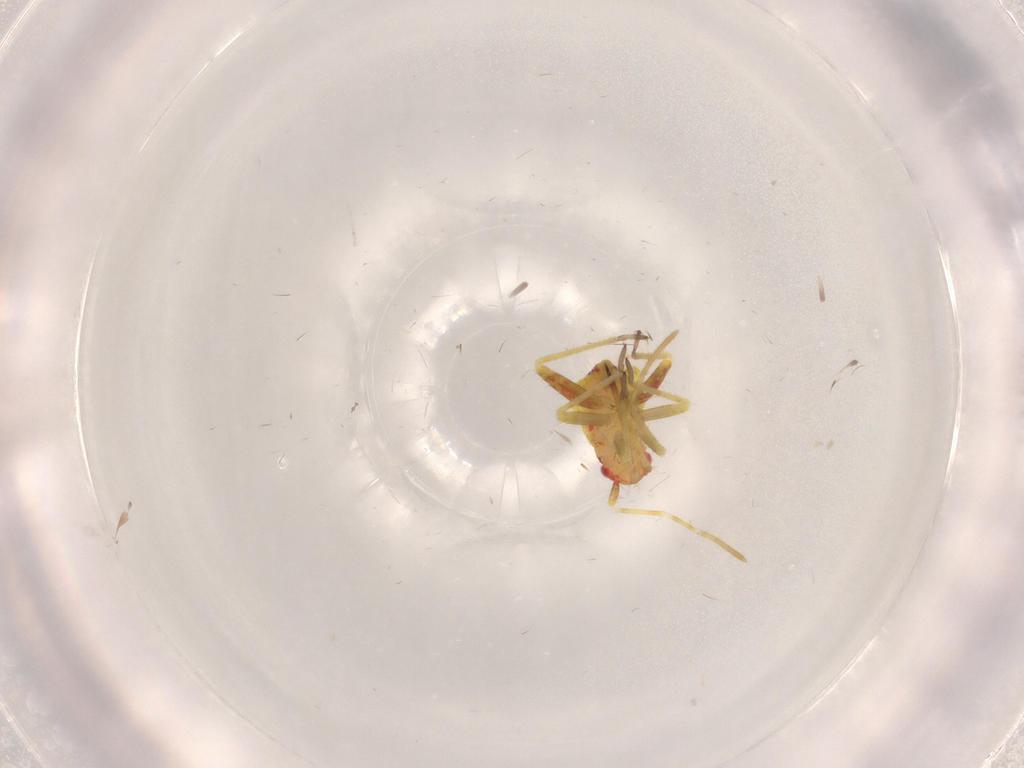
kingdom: Animalia
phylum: Arthropoda
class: Insecta
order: Hemiptera
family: Miridae
